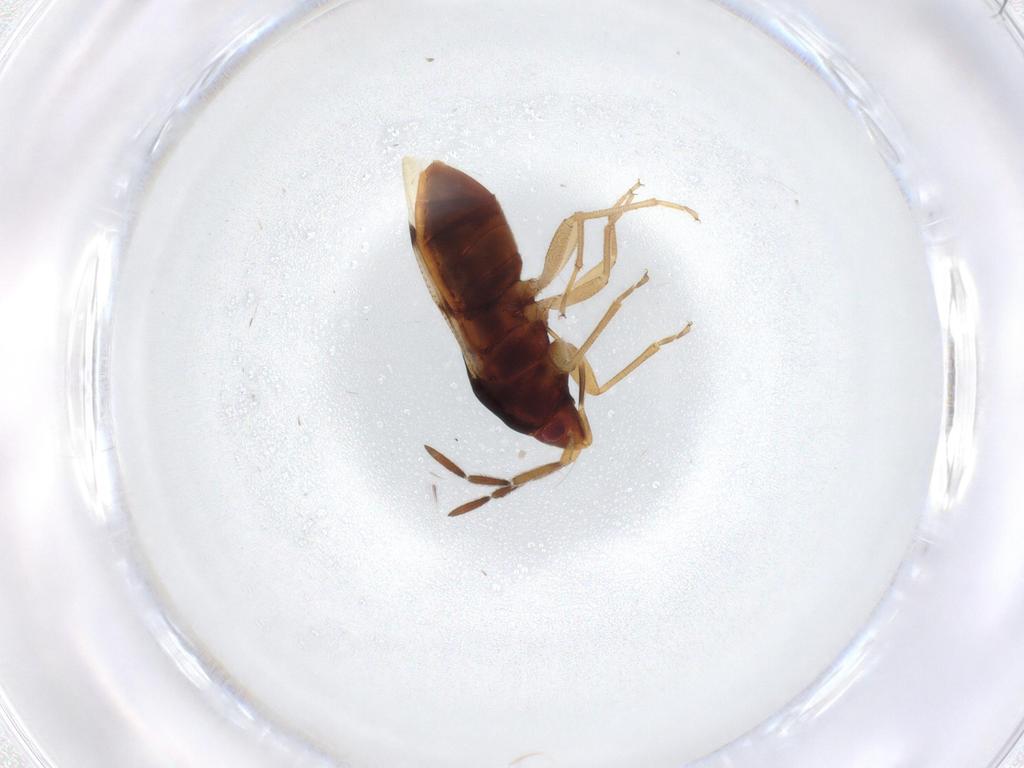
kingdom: Animalia
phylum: Arthropoda
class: Insecta
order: Hemiptera
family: Rhyparochromidae
